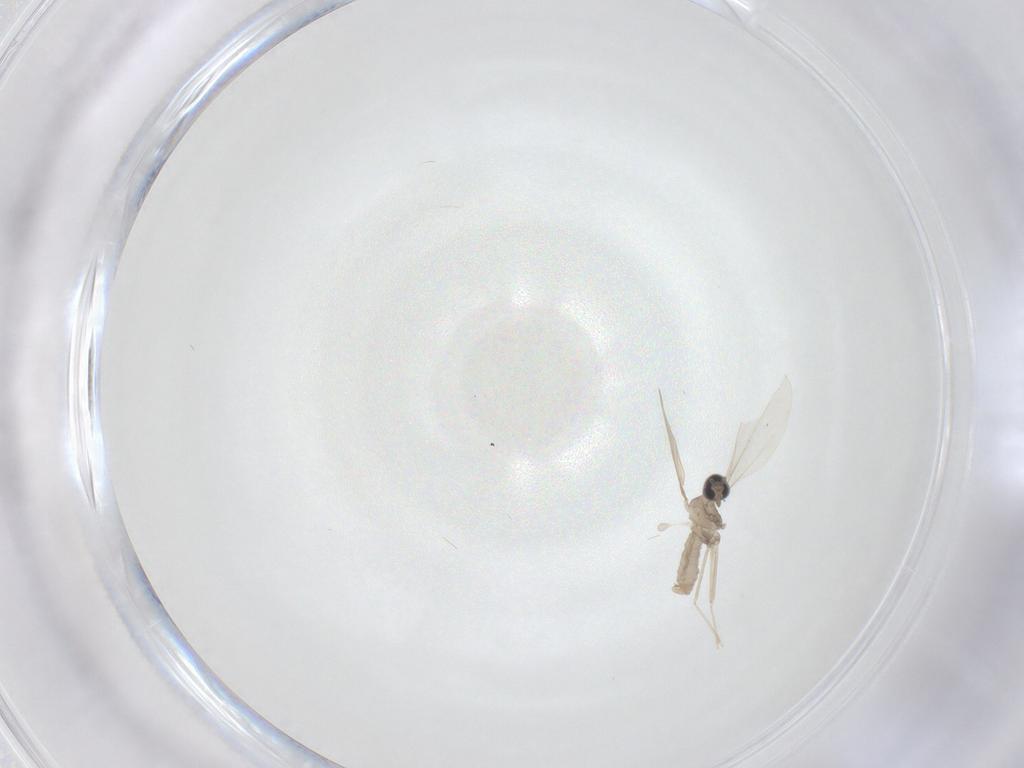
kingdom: Animalia
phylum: Arthropoda
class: Insecta
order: Diptera
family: Cecidomyiidae
